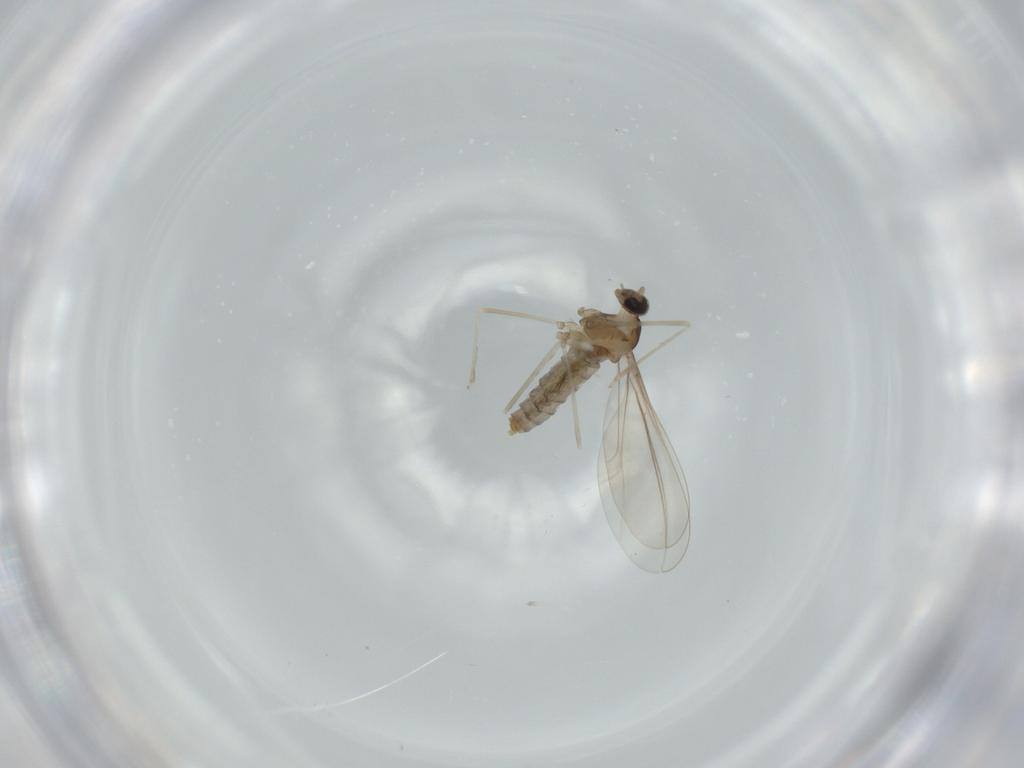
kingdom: Animalia
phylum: Arthropoda
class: Insecta
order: Diptera
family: Cecidomyiidae
